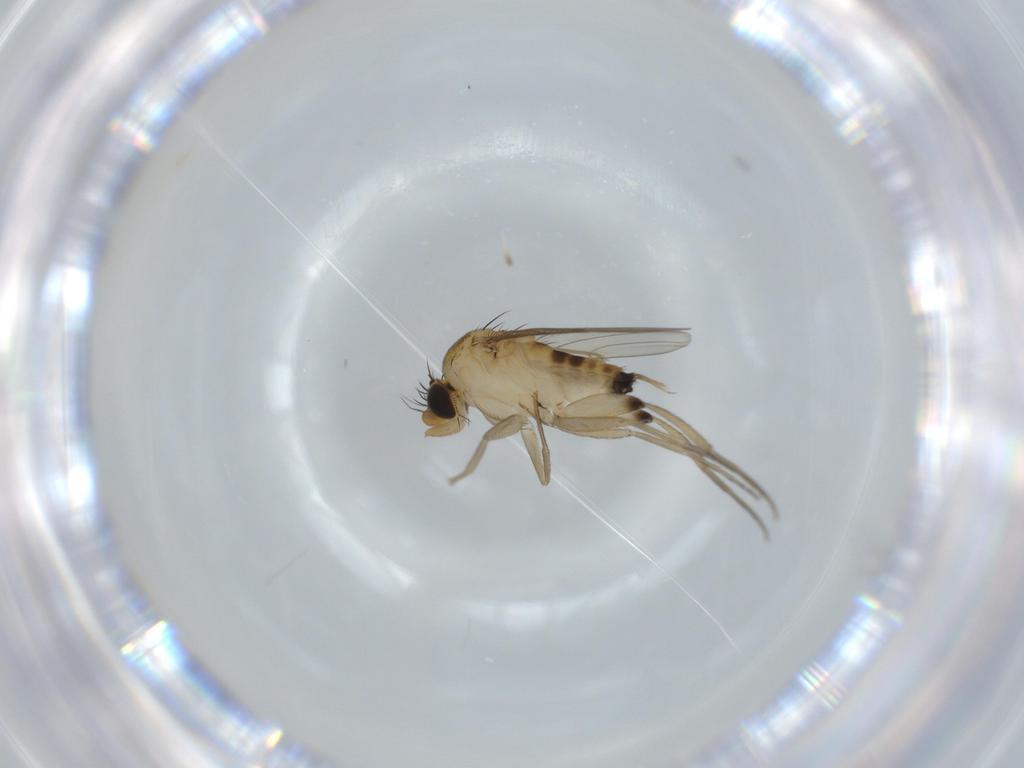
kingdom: Animalia
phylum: Arthropoda
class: Insecta
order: Diptera
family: Phoridae
